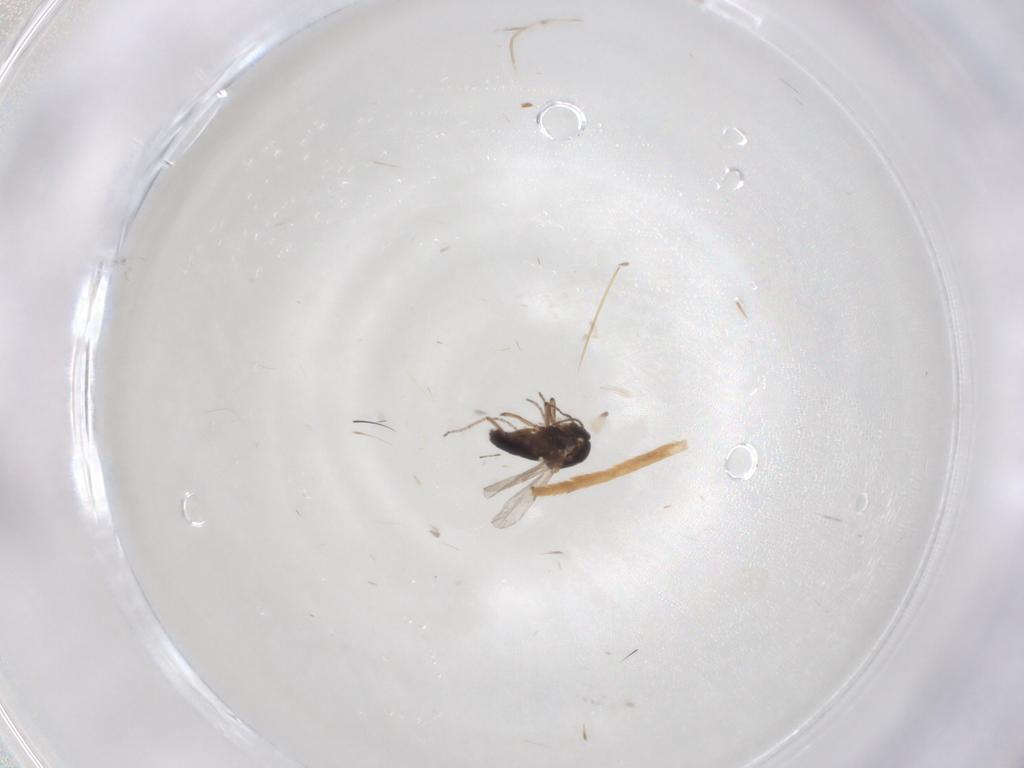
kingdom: Animalia
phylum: Arthropoda
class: Insecta
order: Diptera
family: Ceratopogonidae
